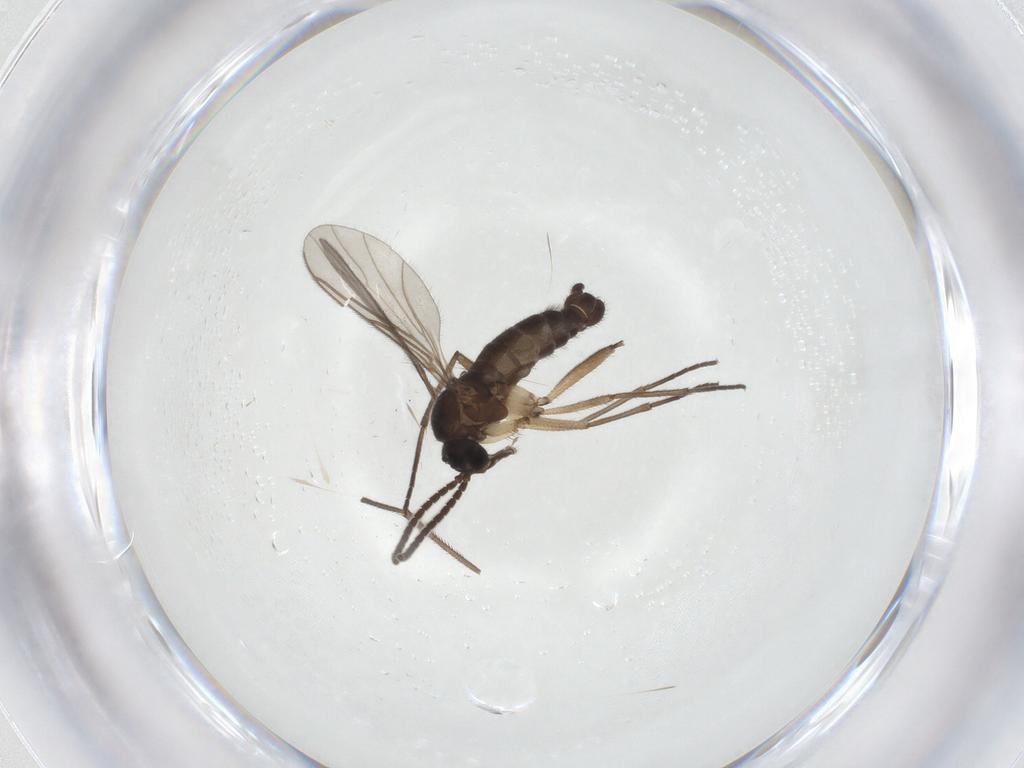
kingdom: Animalia
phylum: Arthropoda
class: Insecta
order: Diptera
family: Sciaridae
